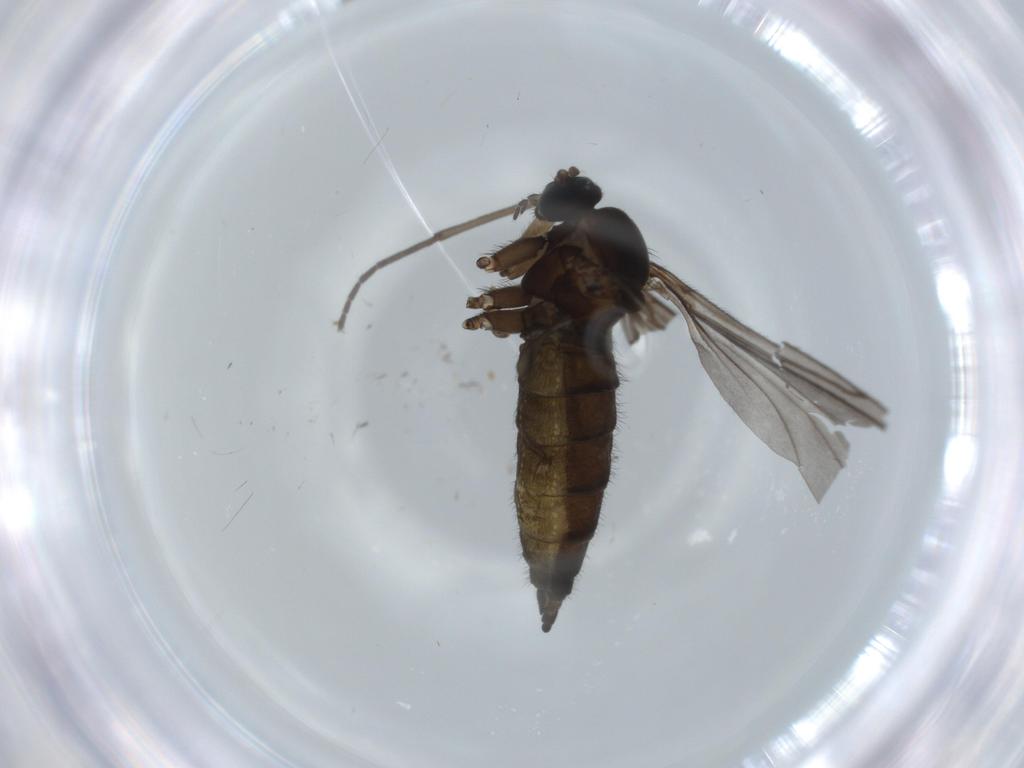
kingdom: Animalia
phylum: Arthropoda
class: Insecta
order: Diptera
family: Sciaridae
